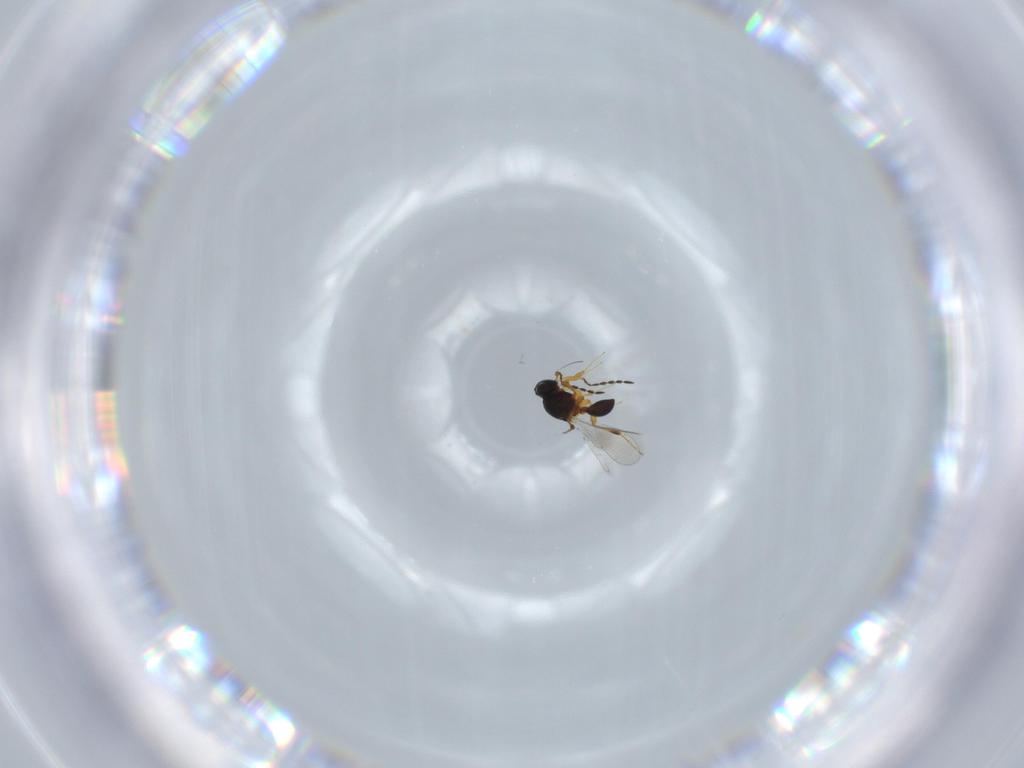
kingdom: Animalia
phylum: Arthropoda
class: Insecta
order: Hymenoptera
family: Platygastridae
